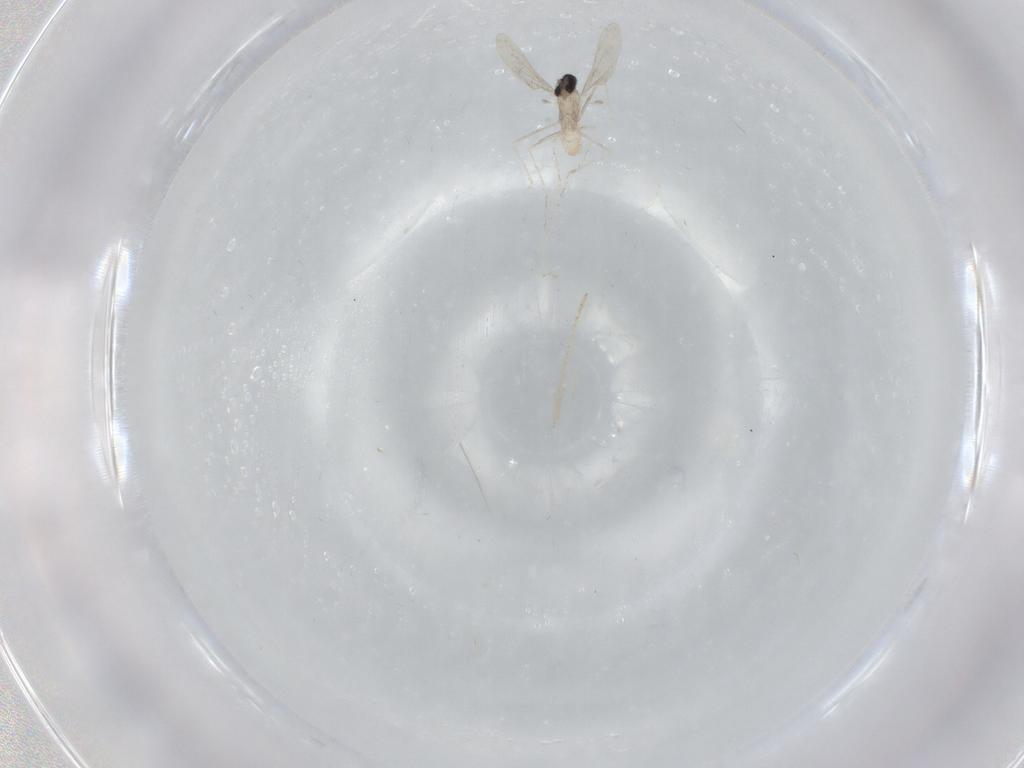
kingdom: Animalia
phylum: Arthropoda
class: Insecta
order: Diptera
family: Cecidomyiidae
